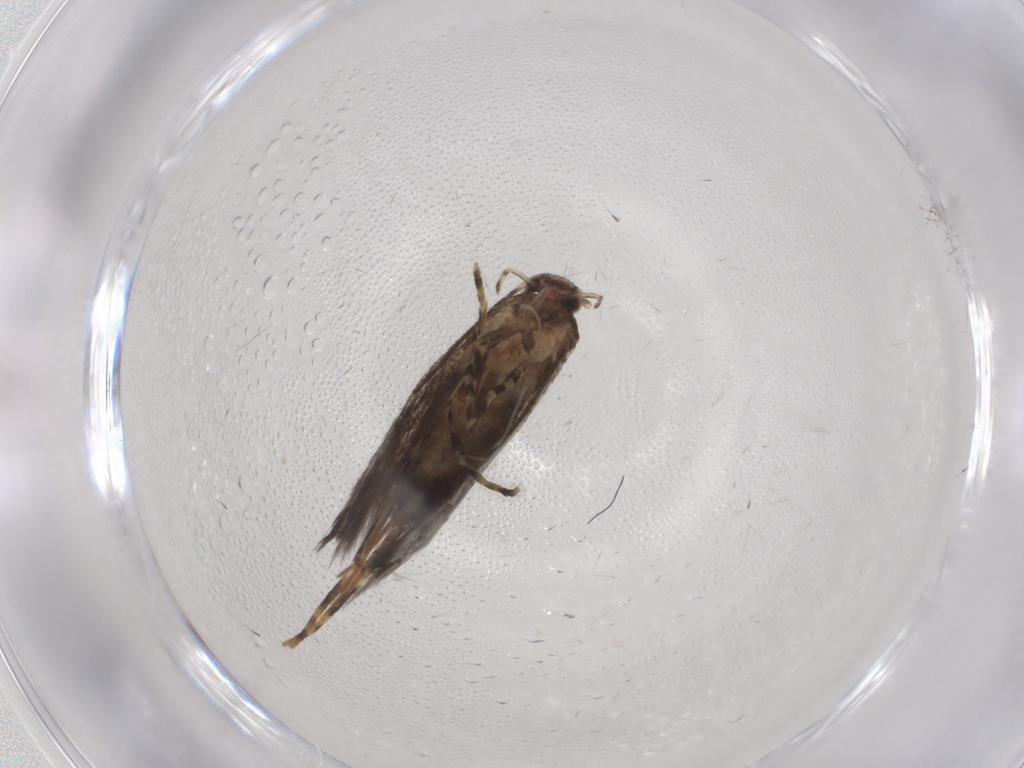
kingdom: Animalia
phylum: Arthropoda
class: Insecta
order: Lepidoptera
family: Elachistidae
